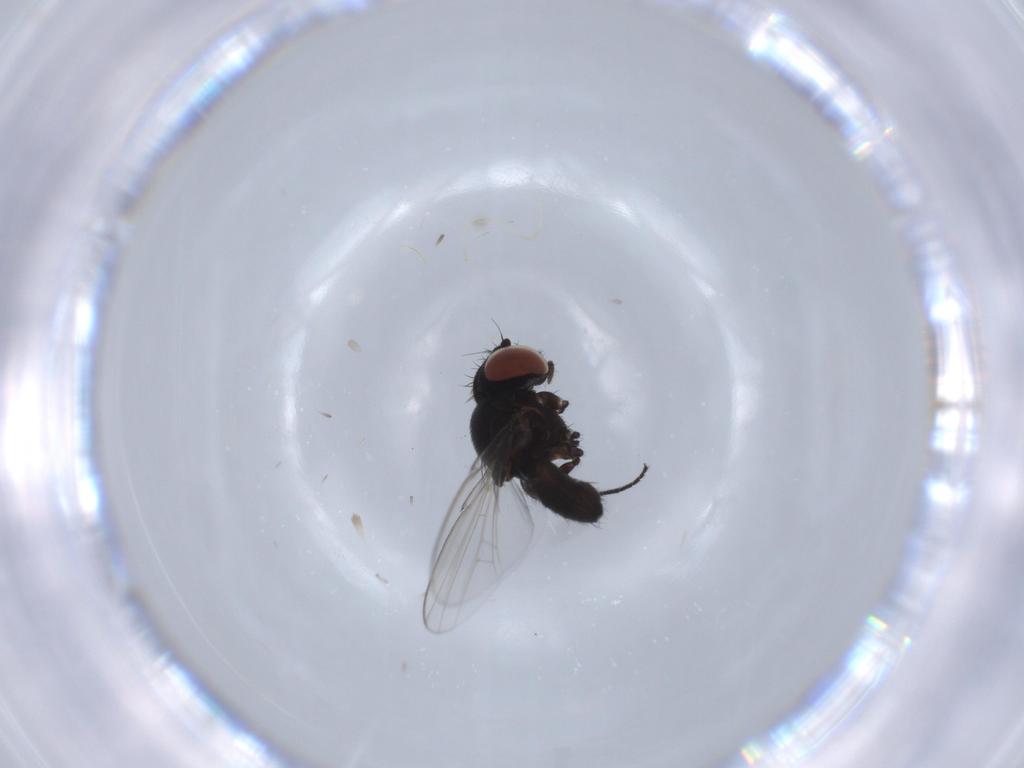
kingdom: Animalia
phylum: Arthropoda
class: Insecta
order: Diptera
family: Milichiidae
